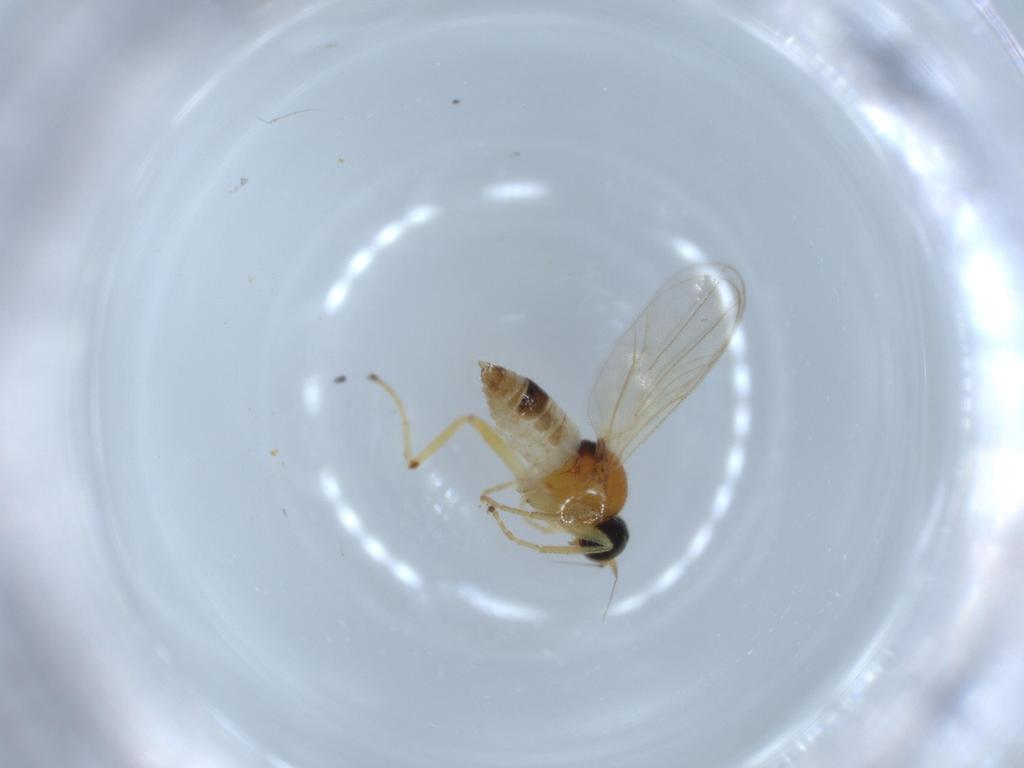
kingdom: Animalia
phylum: Arthropoda
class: Insecta
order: Diptera
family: Hybotidae
